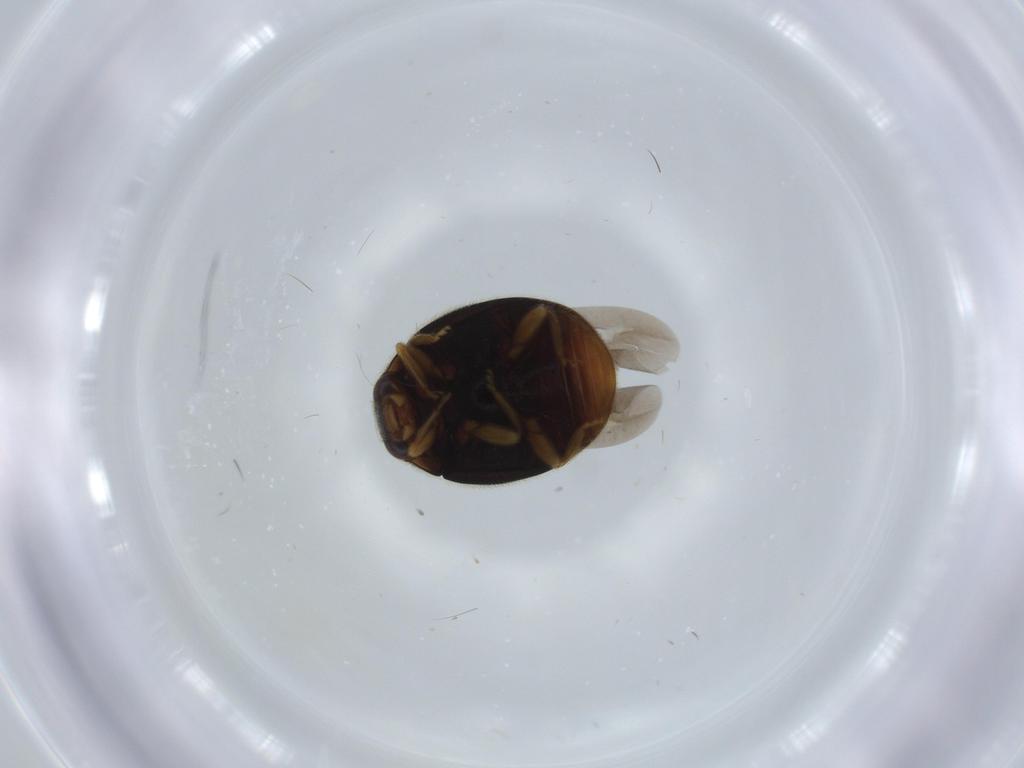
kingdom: Animalia
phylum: Arthropoda
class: Insecta
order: Coleoptera
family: Coccinellidae
